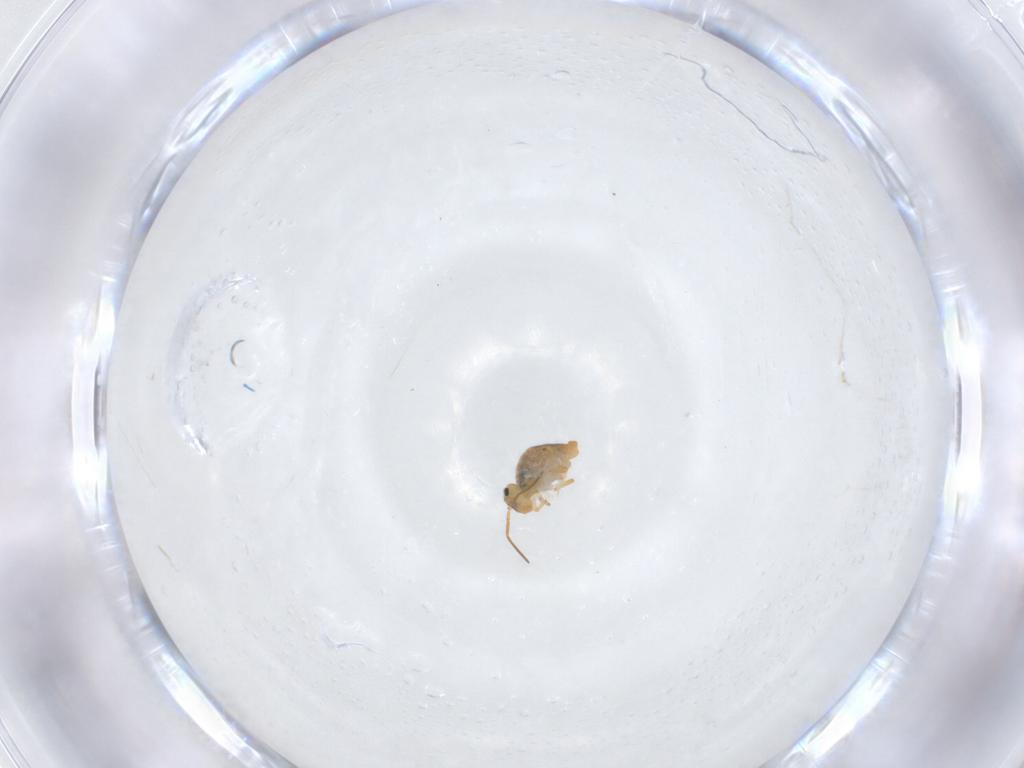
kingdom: Animalia
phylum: Arthropoda
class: Collembola
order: Symphypleona
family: Katiannidae
